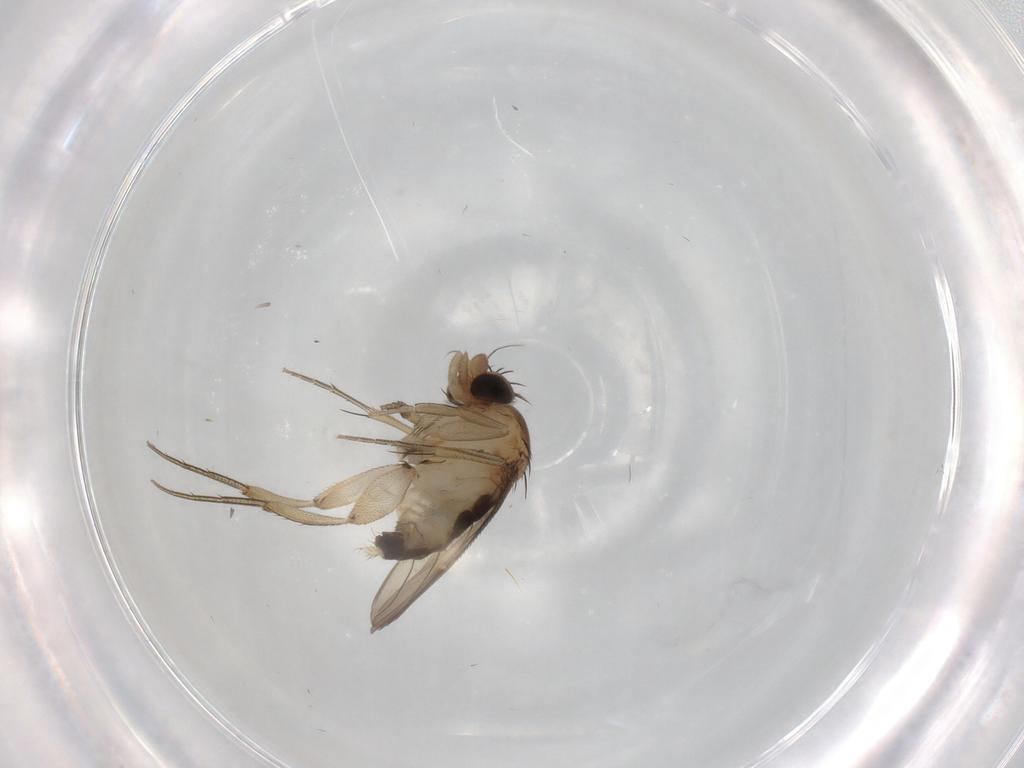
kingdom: Animalia
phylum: Arthropoda
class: Insecta
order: Diptera
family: Phoridae
